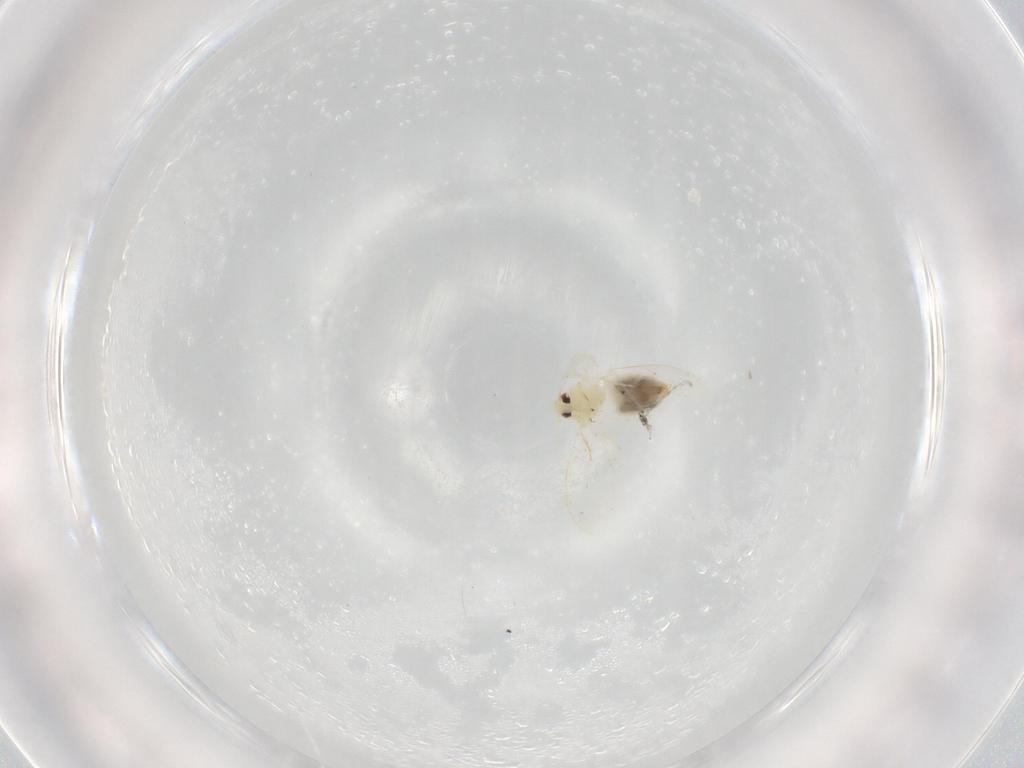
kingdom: Animalia
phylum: Arthropoda
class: Insecta
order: Hemiptera
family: Aleyrodidae
